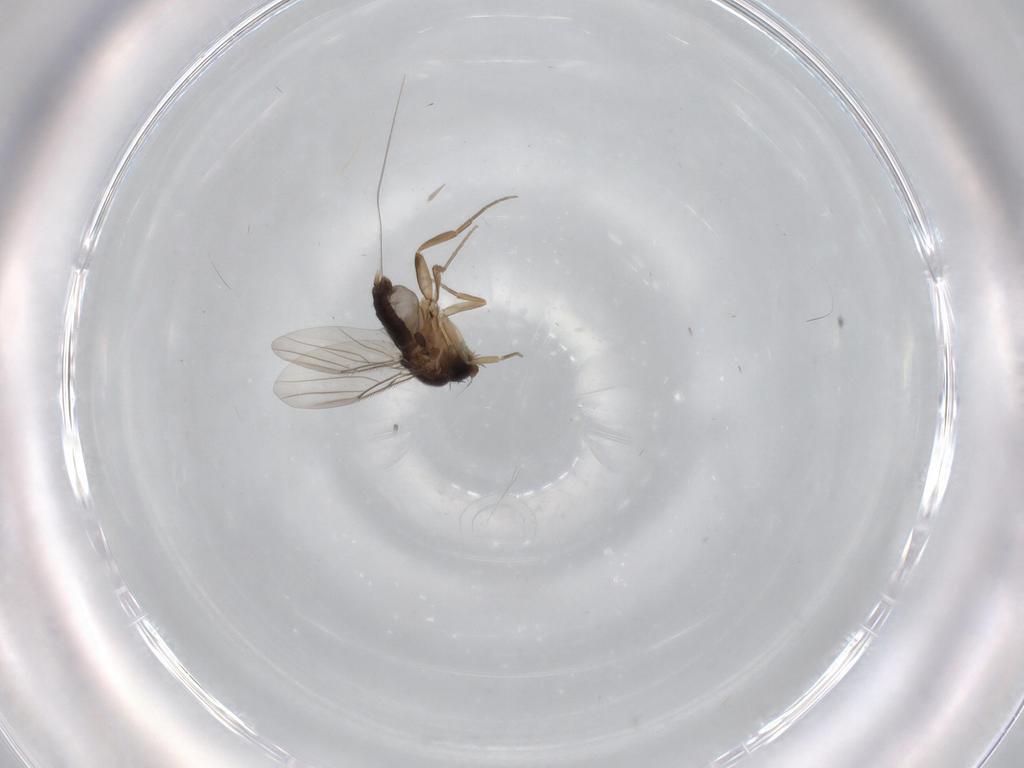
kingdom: Animalia
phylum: Arthropoda
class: Insecta
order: Diptera
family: Phoridae
